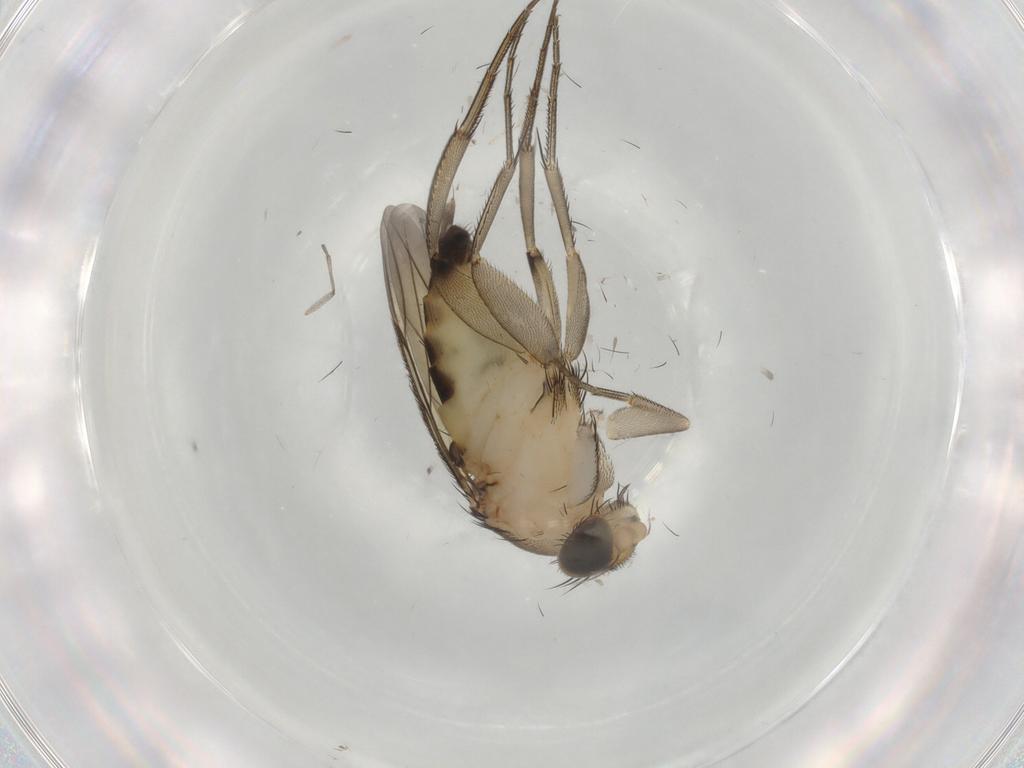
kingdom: Animalia
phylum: Arthropoda
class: Insecta
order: Diptera
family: Phoridae
